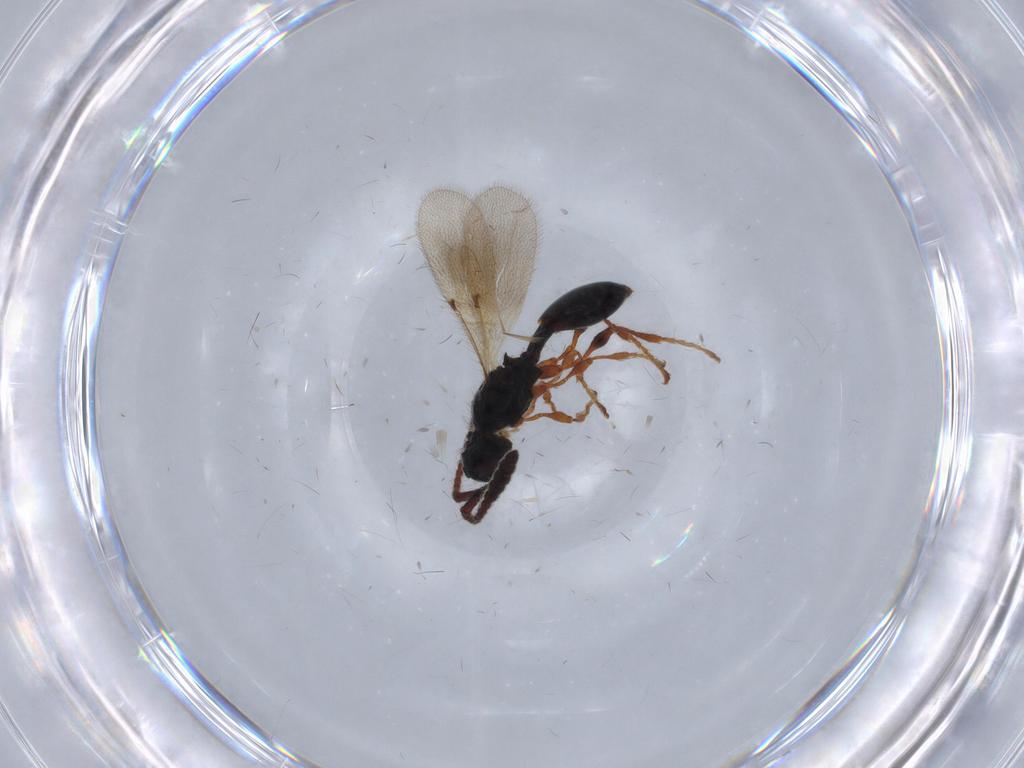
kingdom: Animalia
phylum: Arthropoda
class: Insecta
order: Hymenoptera
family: Diapriidae
